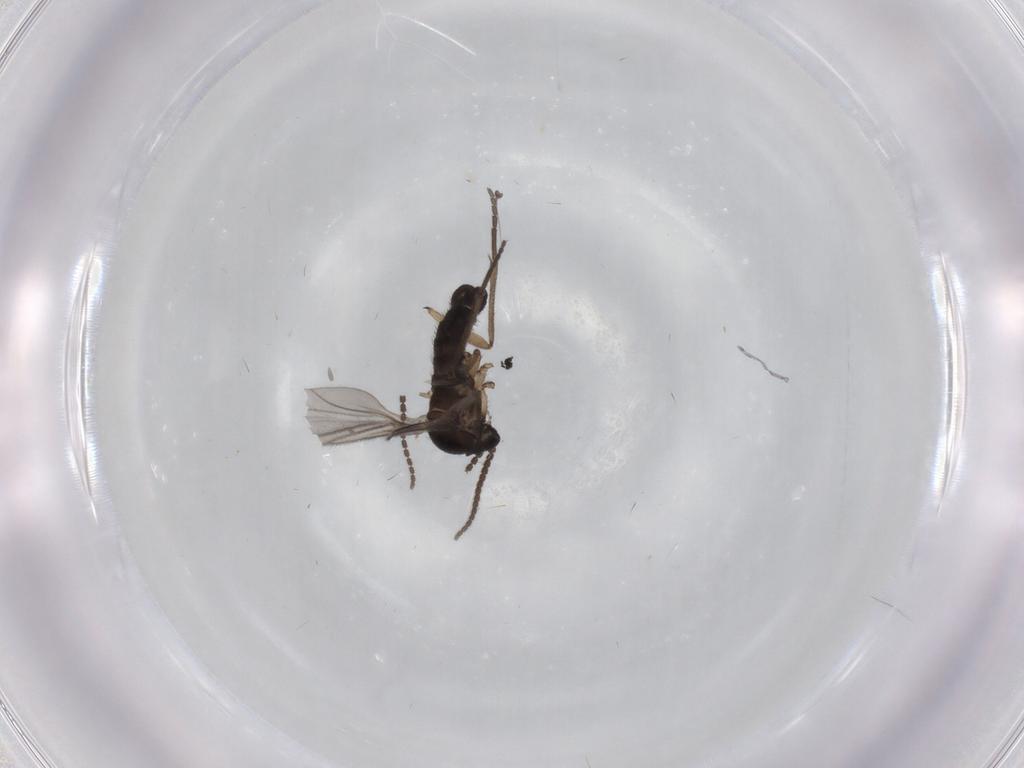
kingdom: Animalia
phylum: Arthropoda
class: Insecta
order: Diptera
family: Sciaridae
